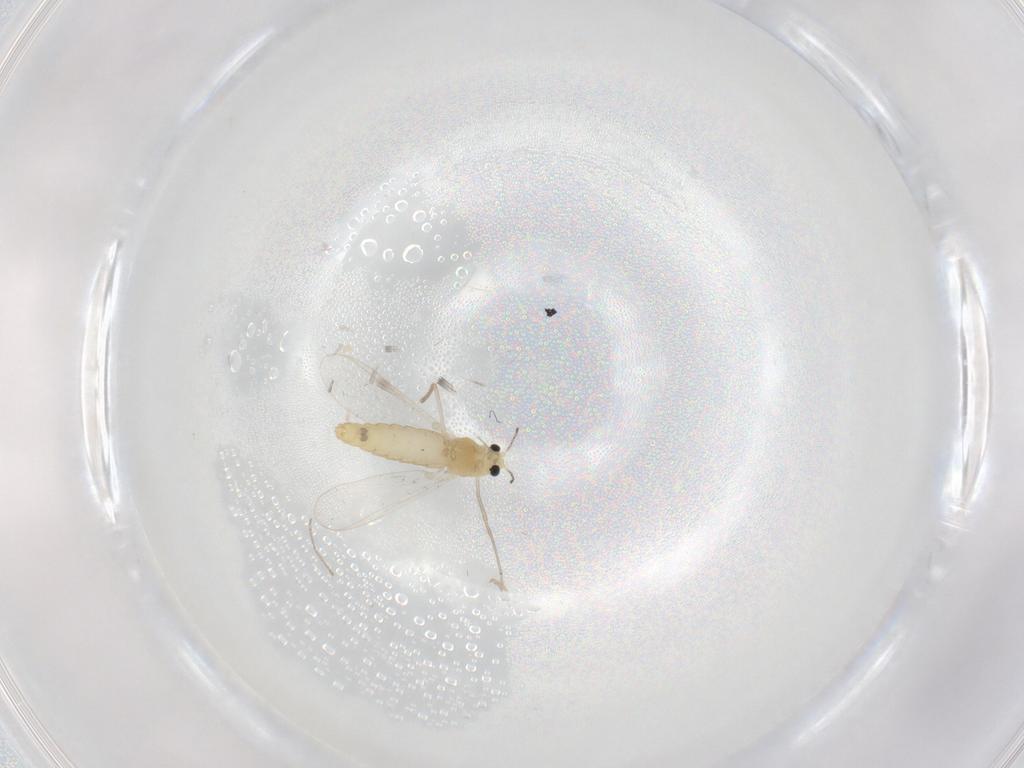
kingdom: Animalia
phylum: Arthropoda
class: Insecta
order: Diptera
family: Chironomidae
